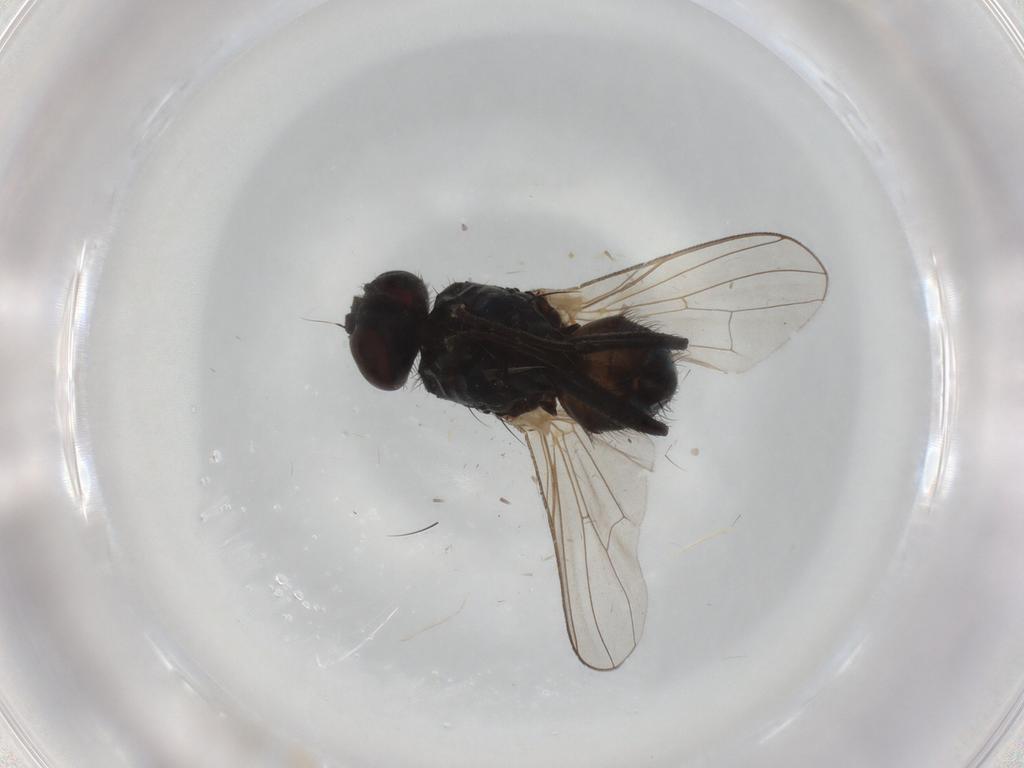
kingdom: Animalia
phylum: Arthropoda
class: Insecta
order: Diptera
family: Muscidae
